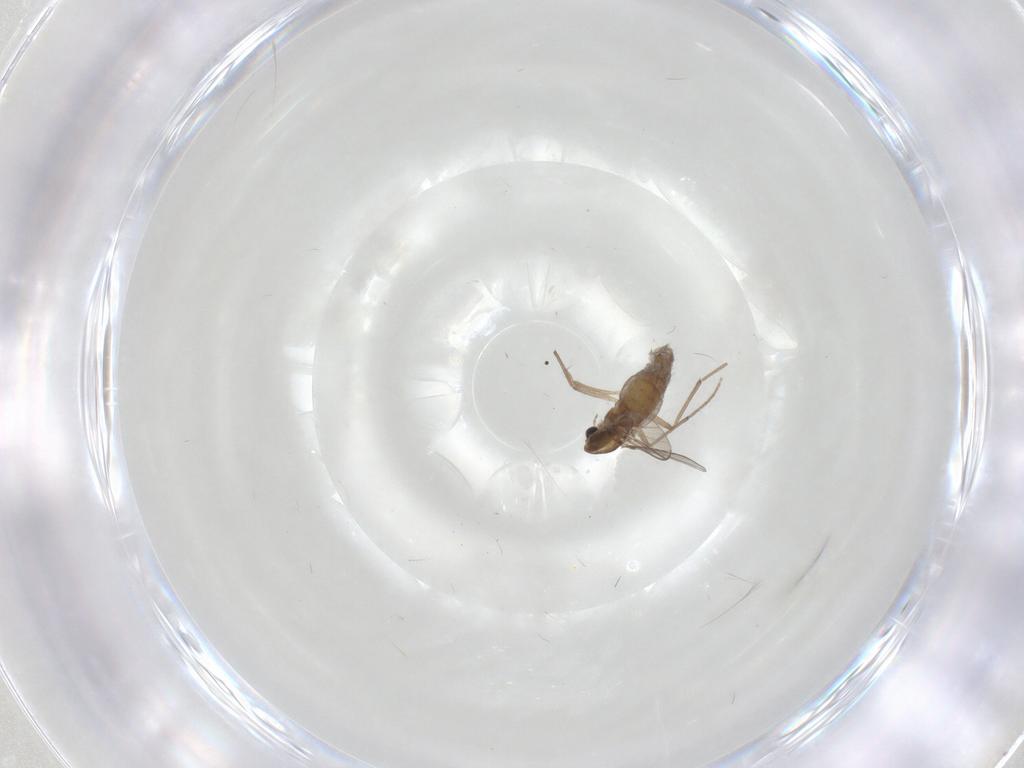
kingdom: Animalia
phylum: Arthropoda
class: Insecta
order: Diptera
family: Chironomidae
